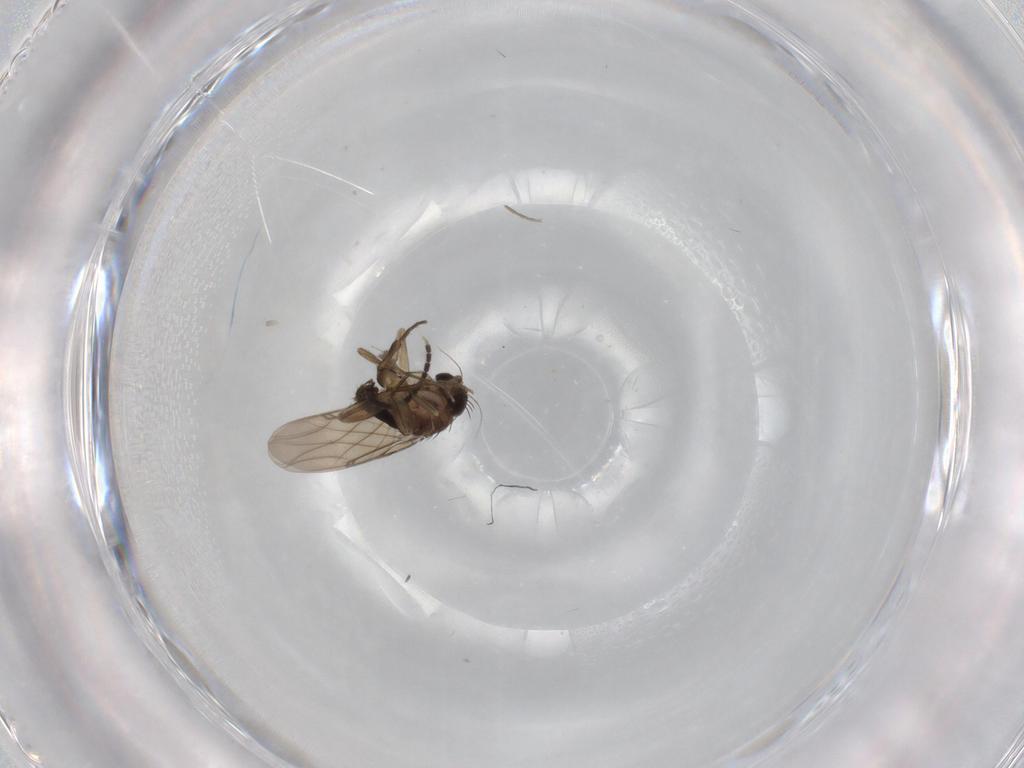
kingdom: Animalia
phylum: Arthropoda
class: Insecta
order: Diptera
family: Sciaridae
